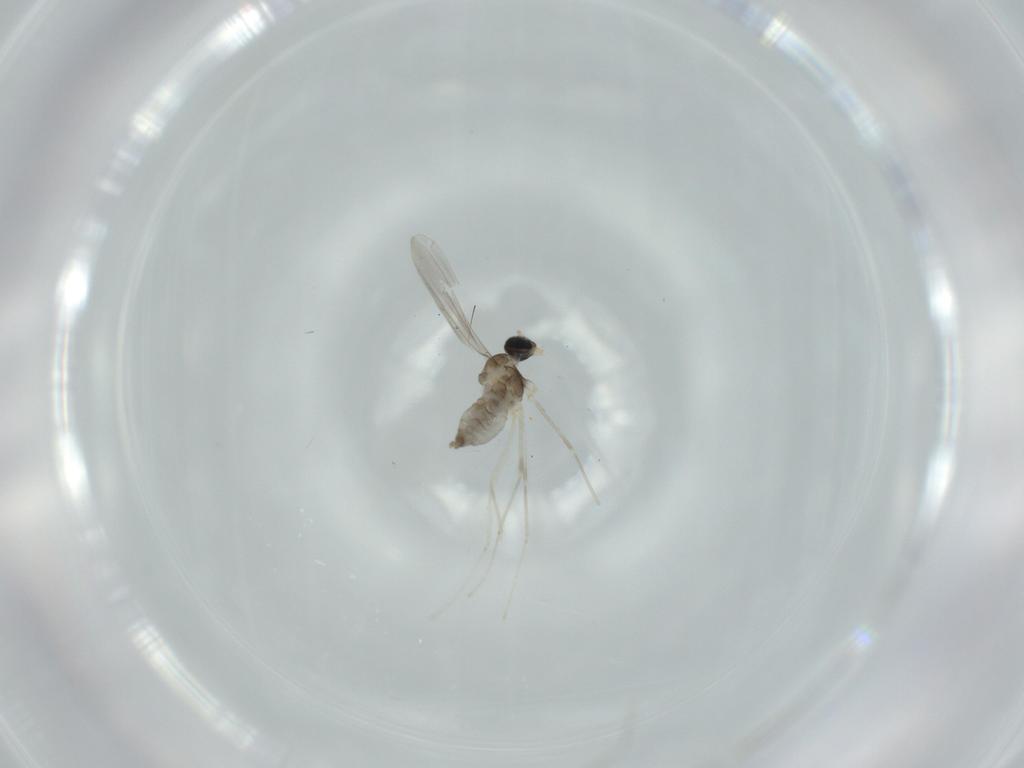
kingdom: Animalia
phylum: Arthropoda
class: Insecta
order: Diptera
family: Cecidomyiidae
